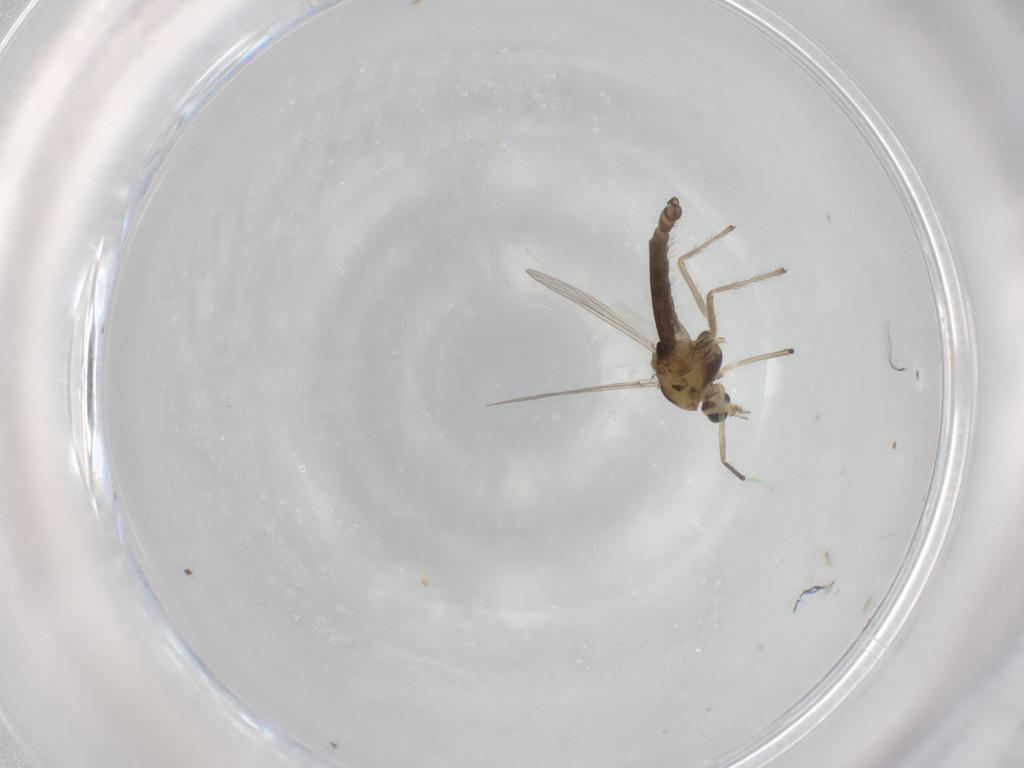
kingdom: Animalia
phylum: Arthropoda
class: Insecta
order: Diptera
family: Chironomidae
